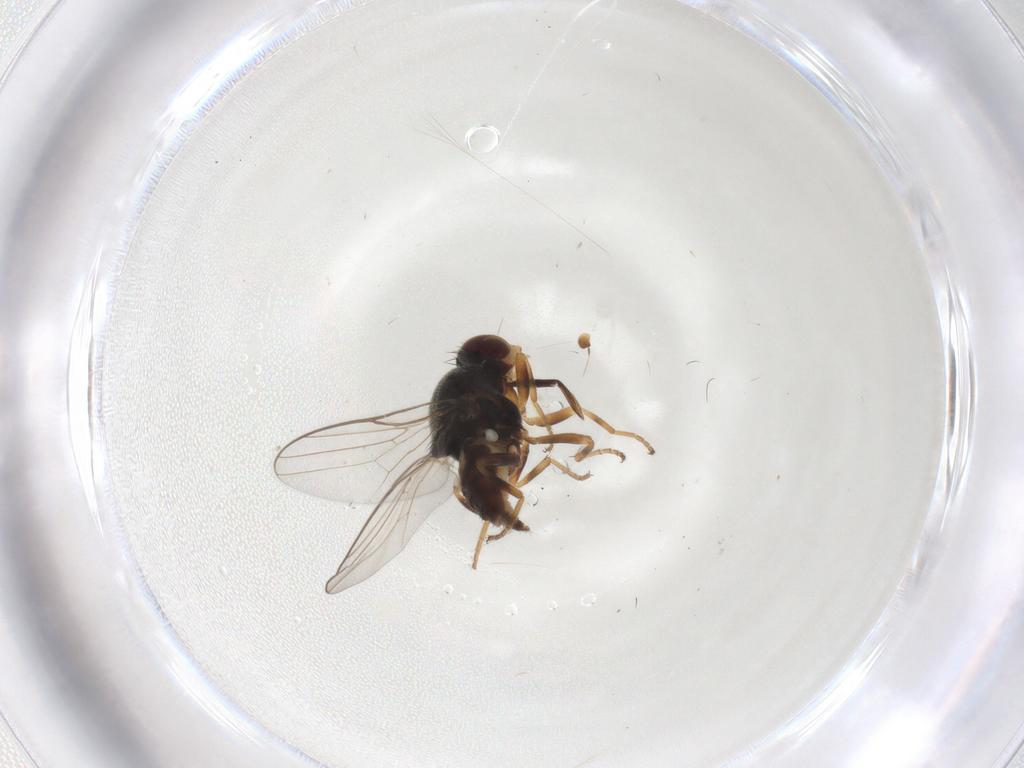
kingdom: Animalia
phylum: Arthropoda
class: Insecta
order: Diptera
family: Chloropidae
